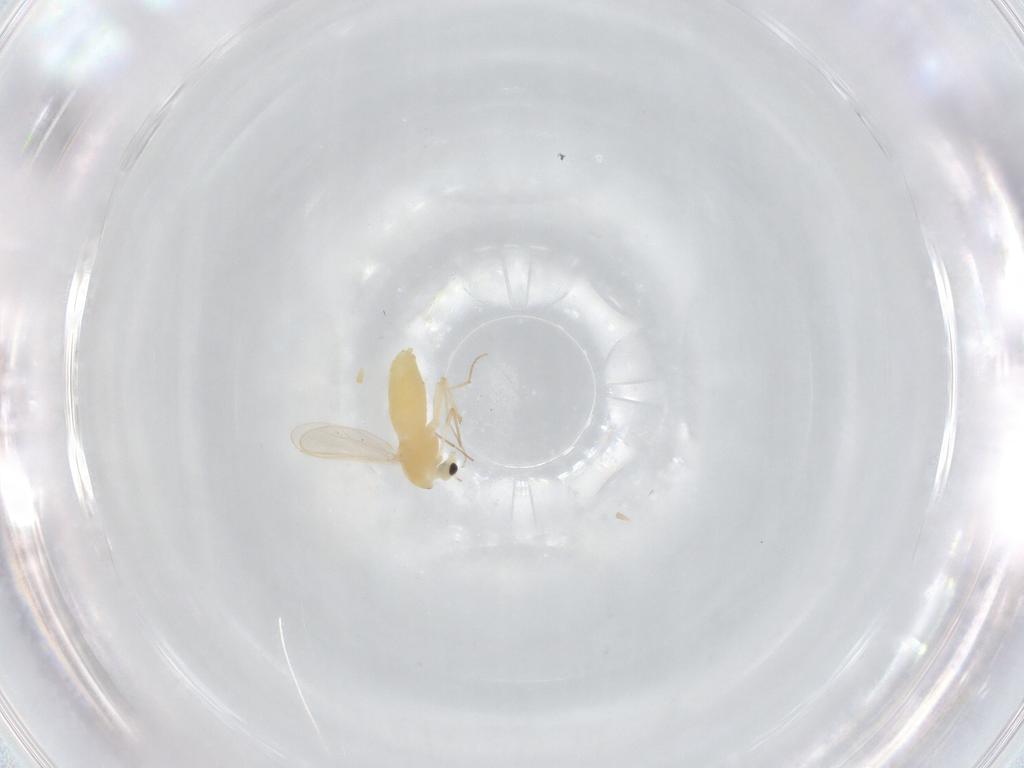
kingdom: Animalia
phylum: Arthropoda
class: Insecta
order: Diptera
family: Chironomidae
